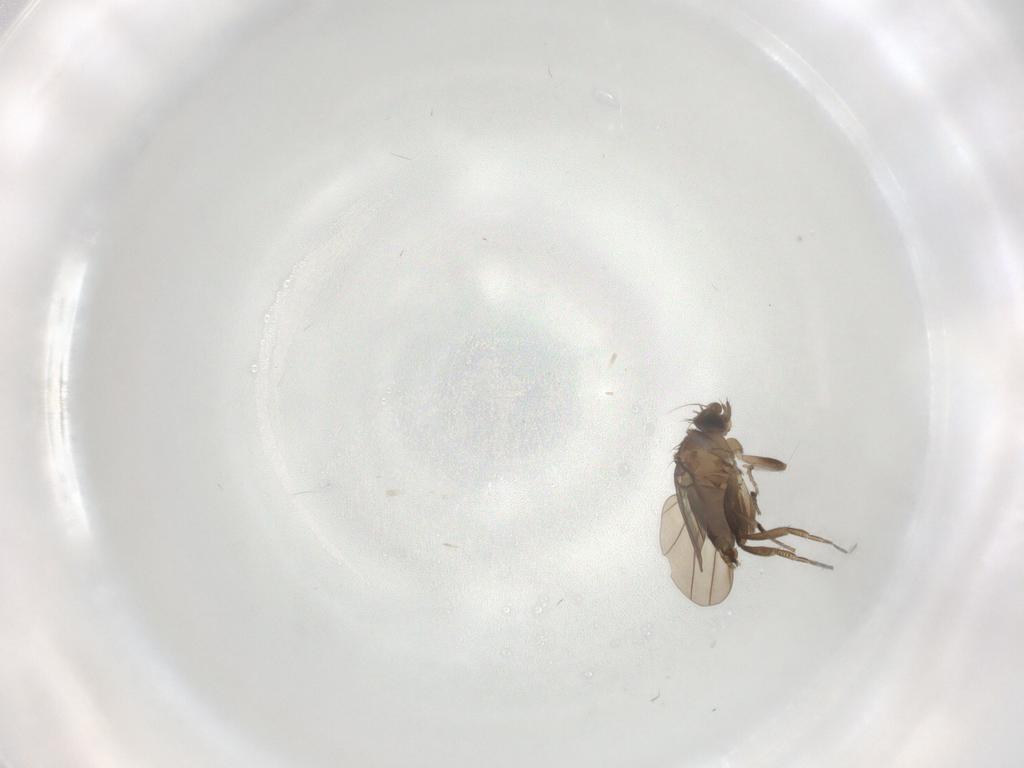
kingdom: Animalia
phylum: Arthropoda
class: Insecta
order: Diptera
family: Phoridae
